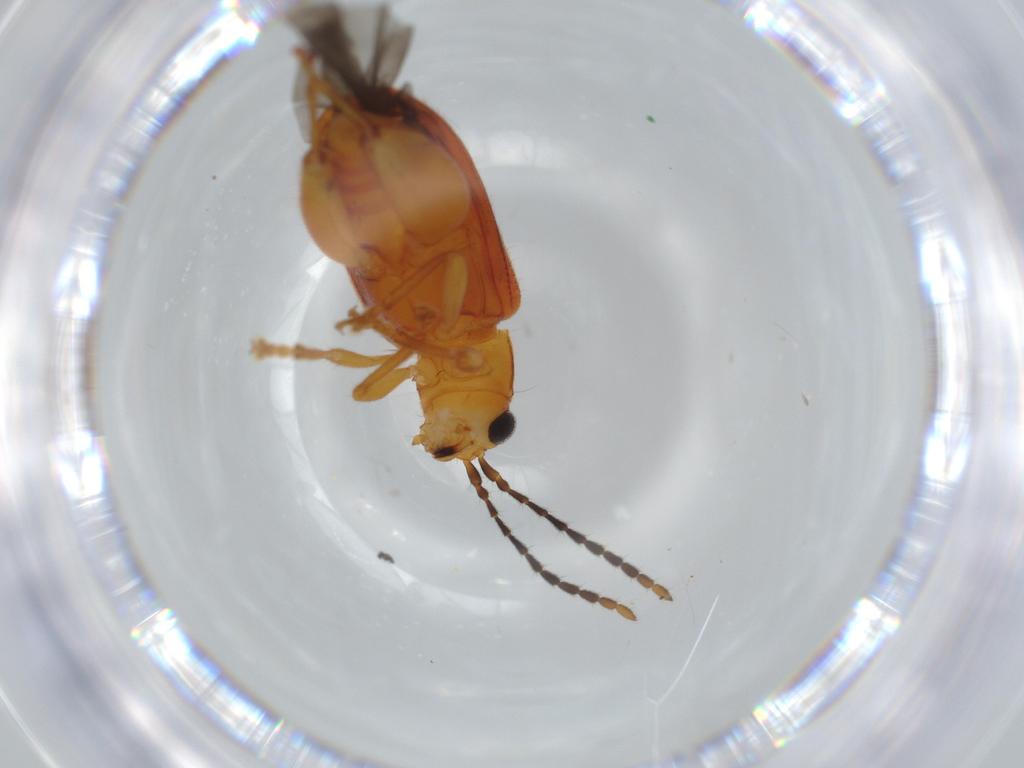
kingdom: Animalia
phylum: Arthropoda
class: Insecta
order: Coleoptera
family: Chrysomelidae
